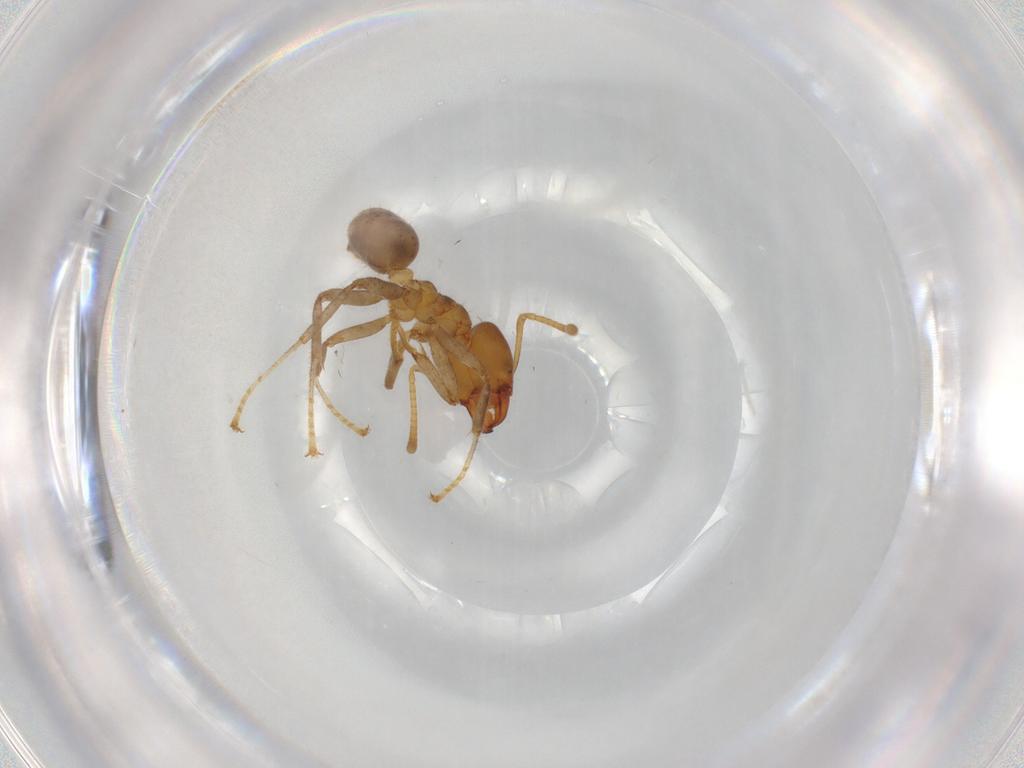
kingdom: Animalia
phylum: Arthropoda
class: Insecta
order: Hymenoptera
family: Formicidae
